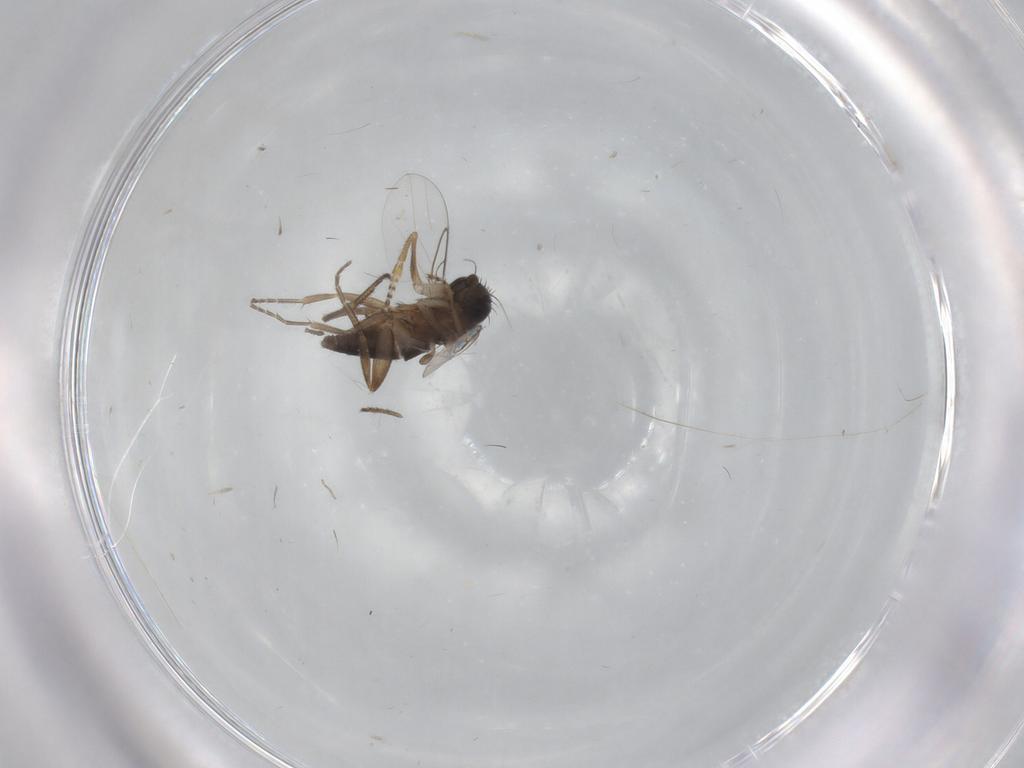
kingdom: Animalia
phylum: Arthropoda
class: Insecta
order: Diptera
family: Phoridae
